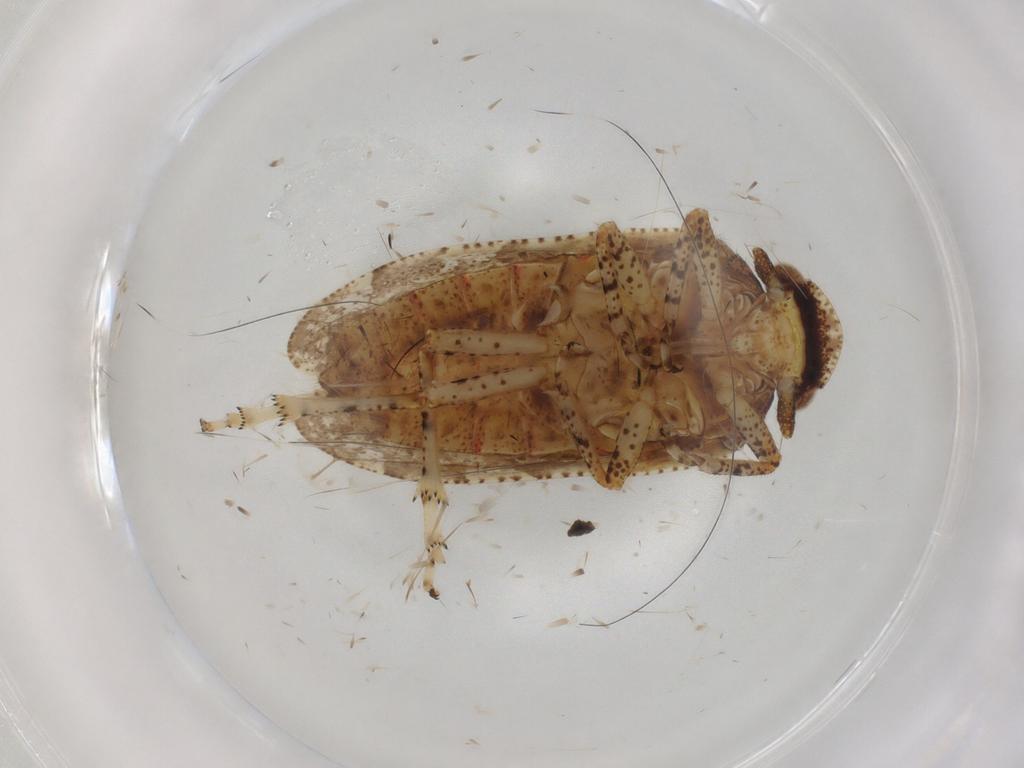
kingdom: Animalia
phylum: Arthropoda
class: Insecta
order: Hemiptera
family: Tettigometridae
